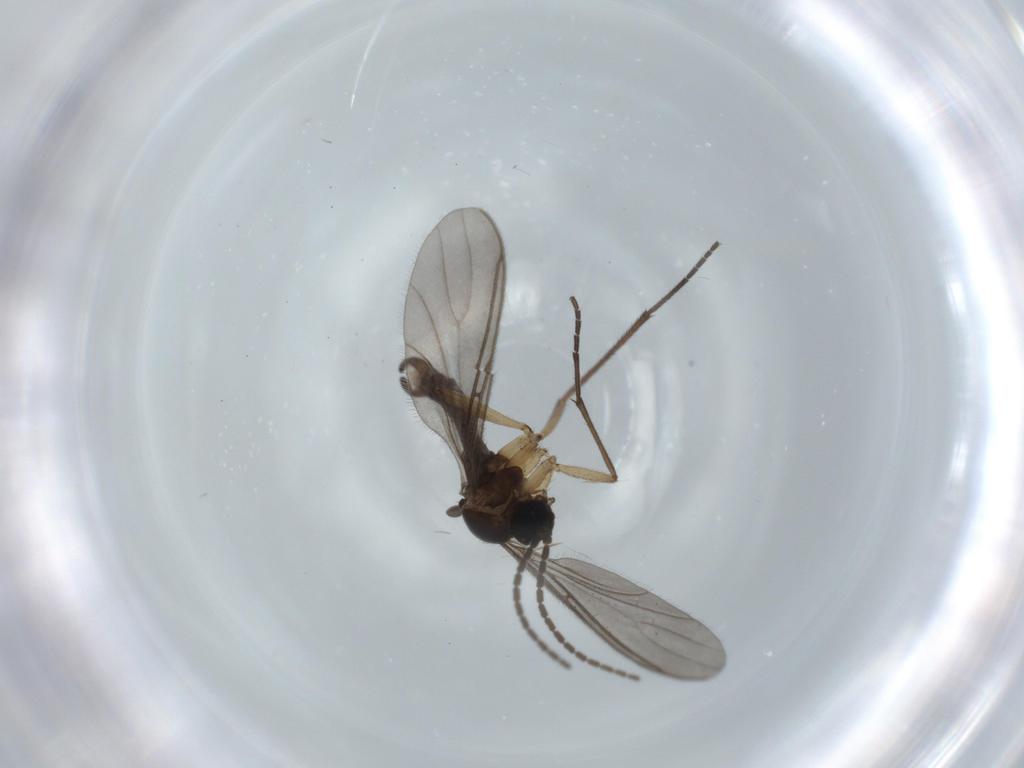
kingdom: Animalia
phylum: Arthropoda
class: Insecta
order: Diptera
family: Sciaridae
